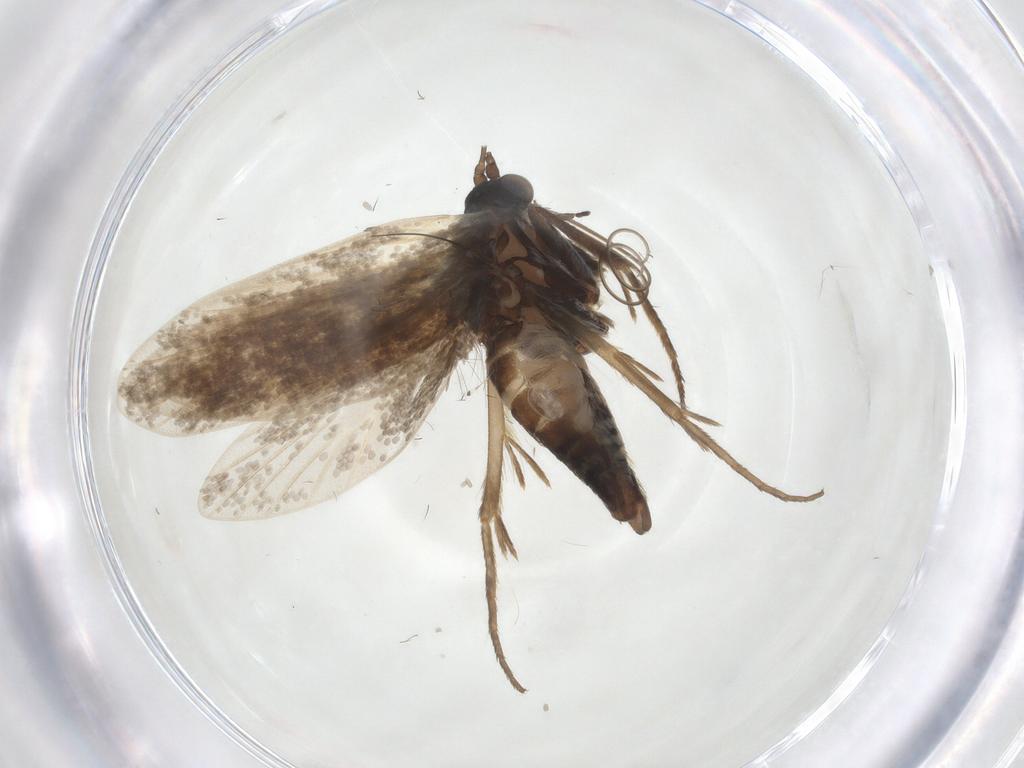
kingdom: Animalia
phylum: Arthropoda
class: Insecta
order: Lepidoptera
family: Adelidae
